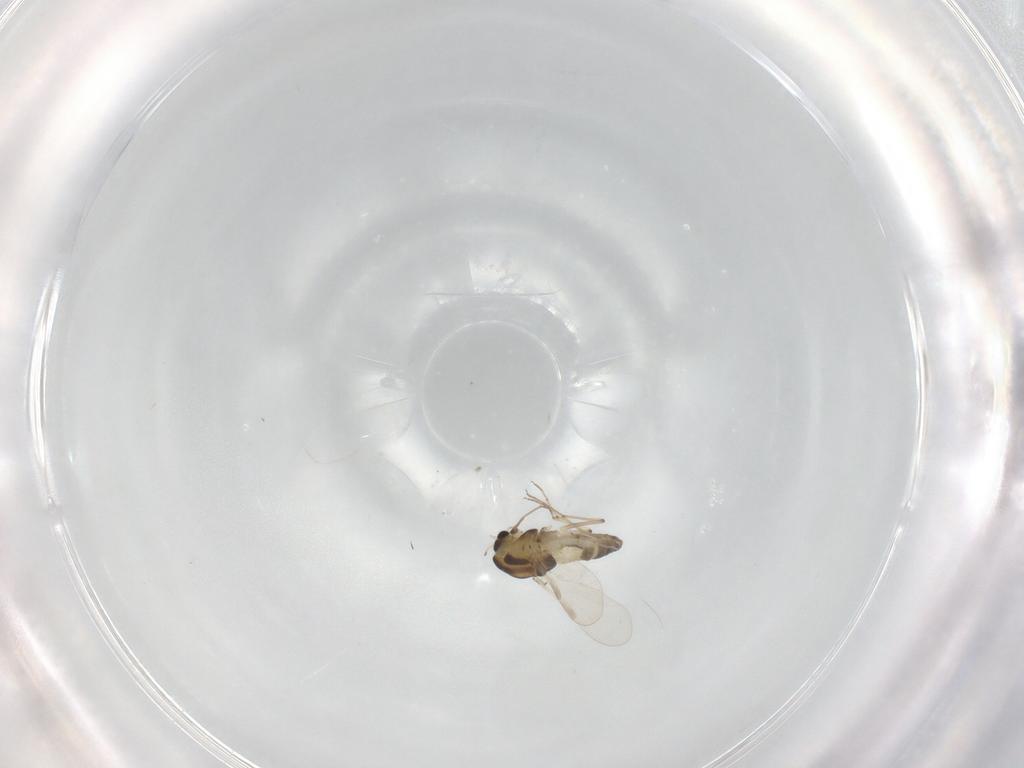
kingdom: Animalia
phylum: Arthropoda
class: Insecta
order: Diptera
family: Chironomidae
